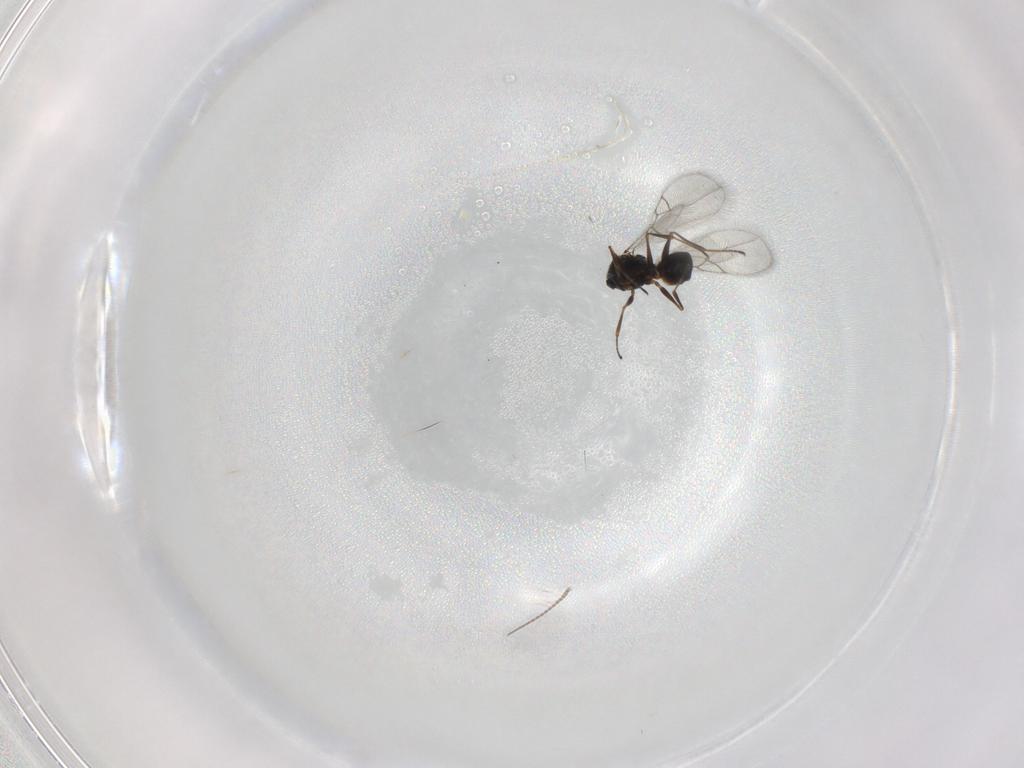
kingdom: Animalia
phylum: Arthropoda
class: Insecta
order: Hymenoptera
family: Figitidae
